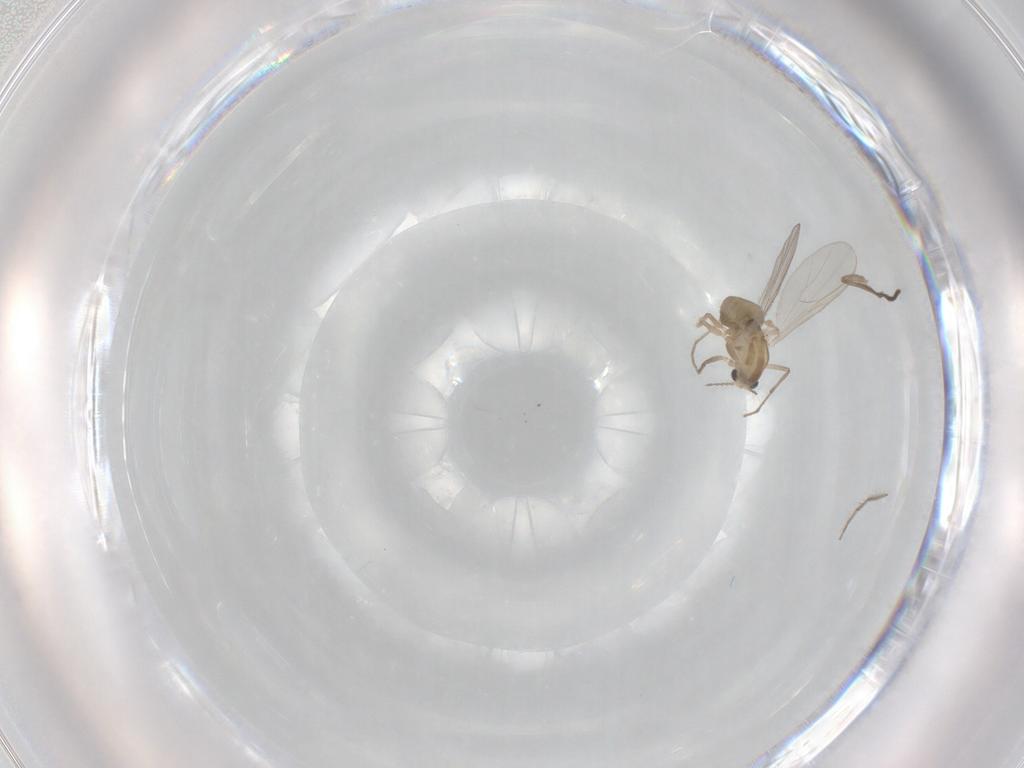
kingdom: Animalia
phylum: Arthropoda
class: Insecta
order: Diptera
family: Chironomidae
